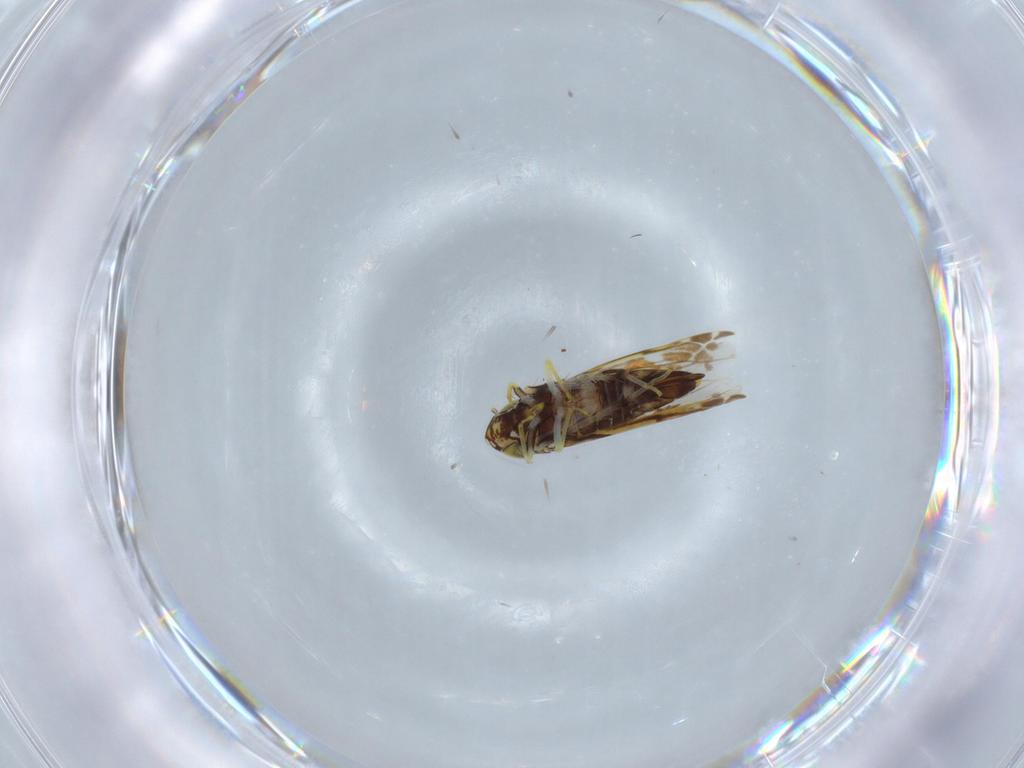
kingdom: Animalia
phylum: Arthropoda
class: Insecta
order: Hemiptera
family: Cicadellidae
